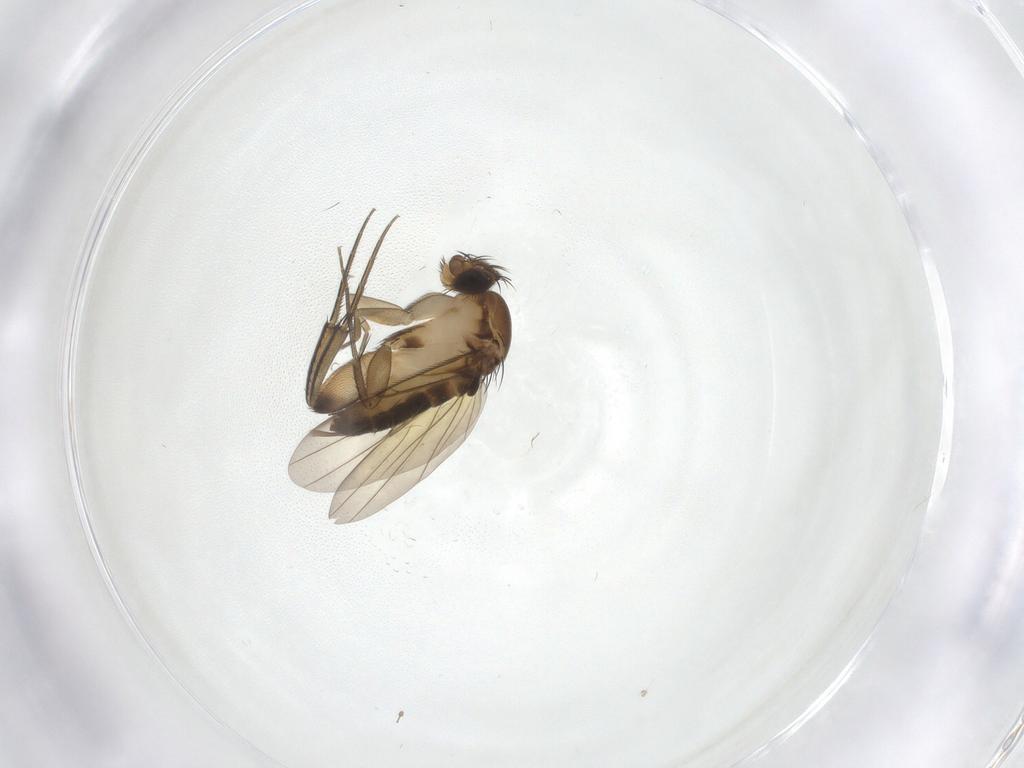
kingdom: Animalia
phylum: Arthropoda
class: Insecta
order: Diptera
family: Phoridae
